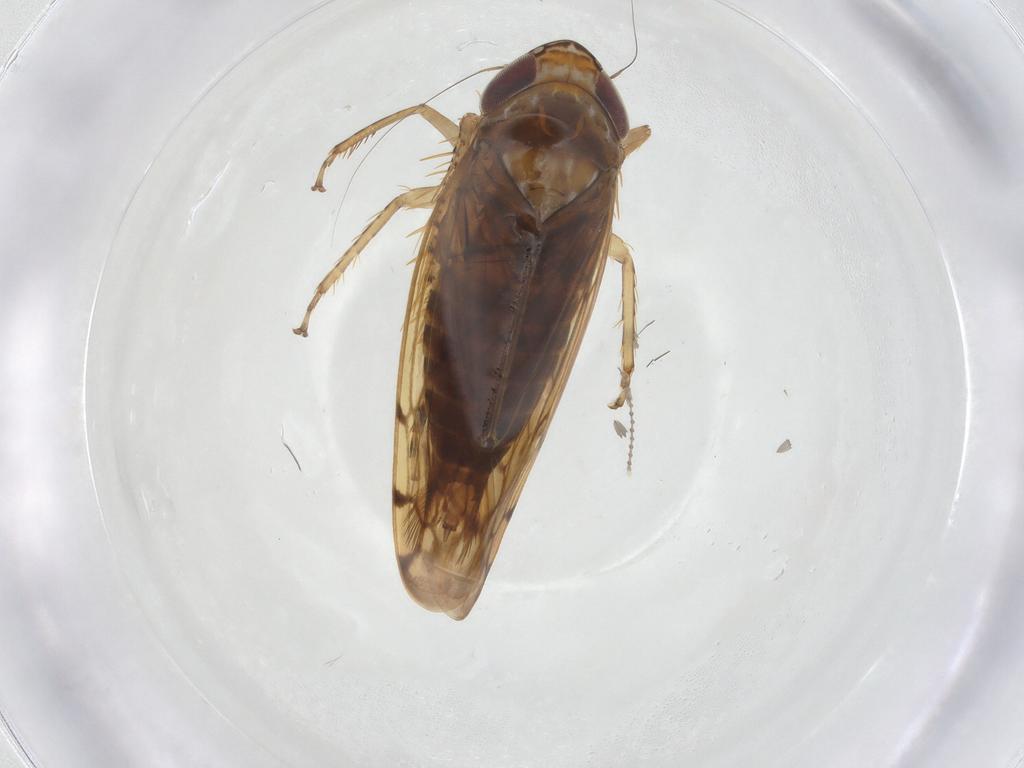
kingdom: Animalia
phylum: Arthropoda
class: Insecta
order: Hemiptera
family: Cicadellidae
